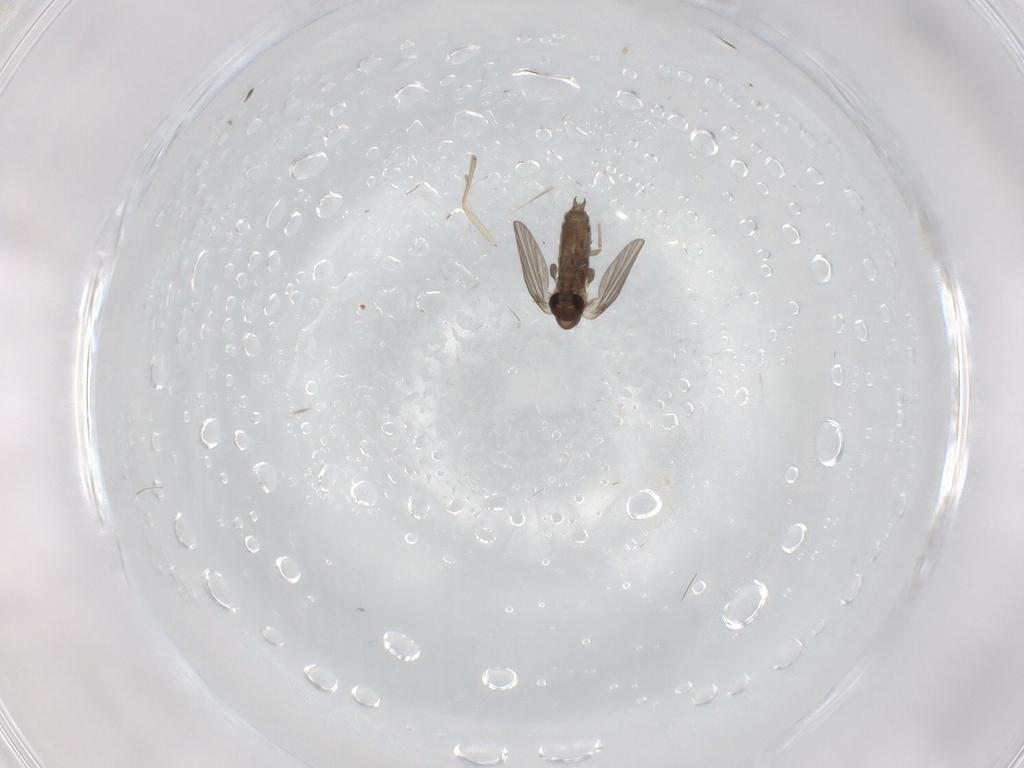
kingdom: Animalia
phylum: Arthropoda
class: Insecta
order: Diptera
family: Sciaridae
